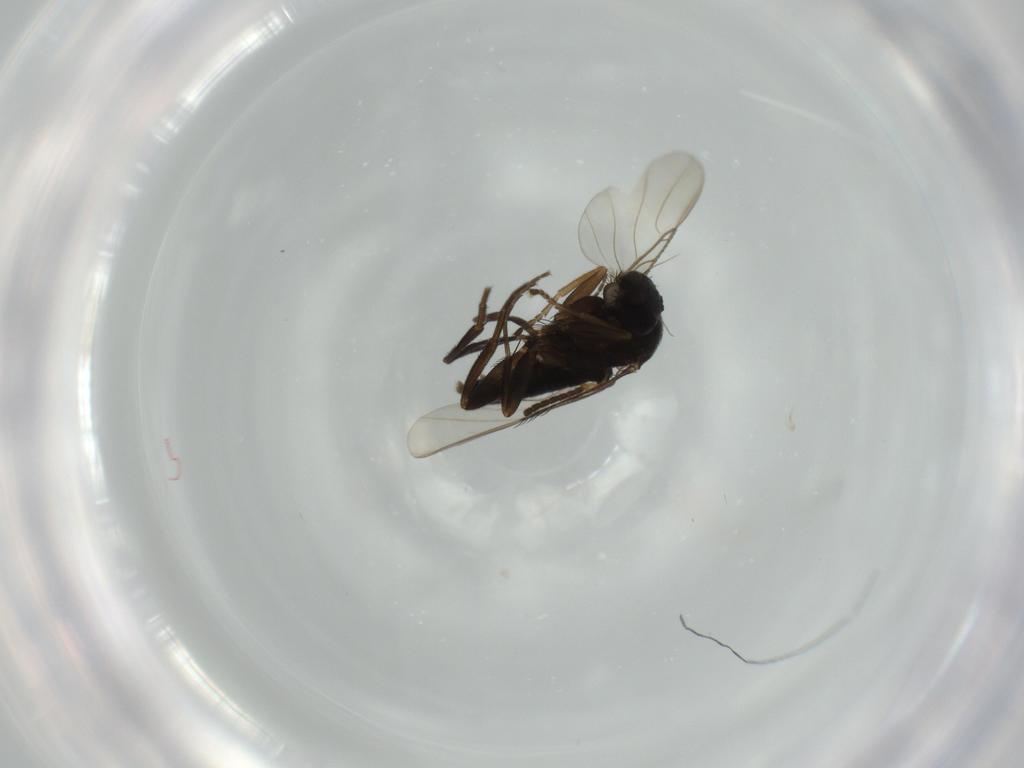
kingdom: Animalia
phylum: Arthropoda
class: Insecta
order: Diptera
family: Phoridae
